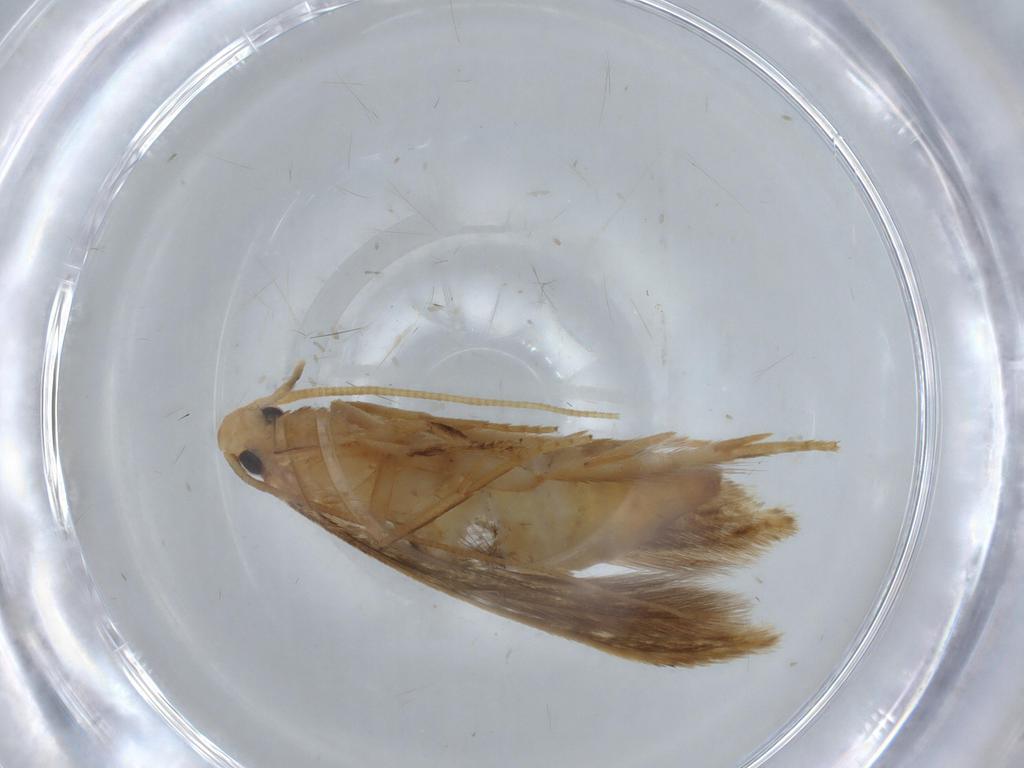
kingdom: Animalia
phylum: Arthropoda
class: Insecta
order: Lepidoptera
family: Tineidae
